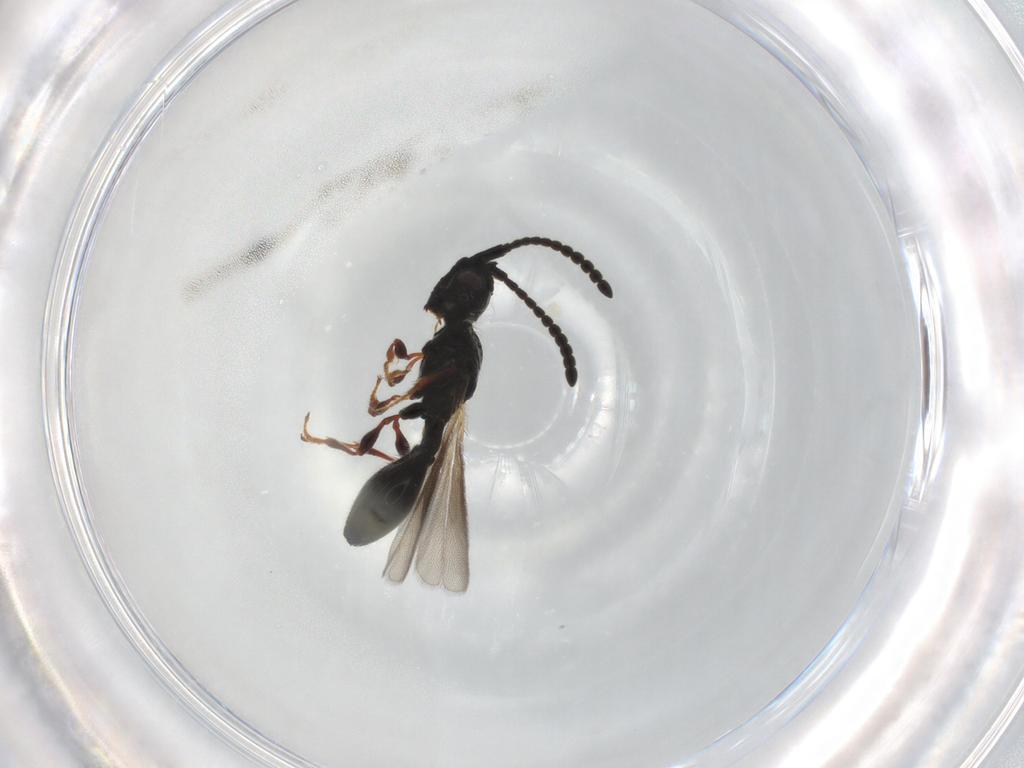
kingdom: Animalia
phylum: Arthropoda
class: Insecta
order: Hymenoptera
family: Diapriidae
